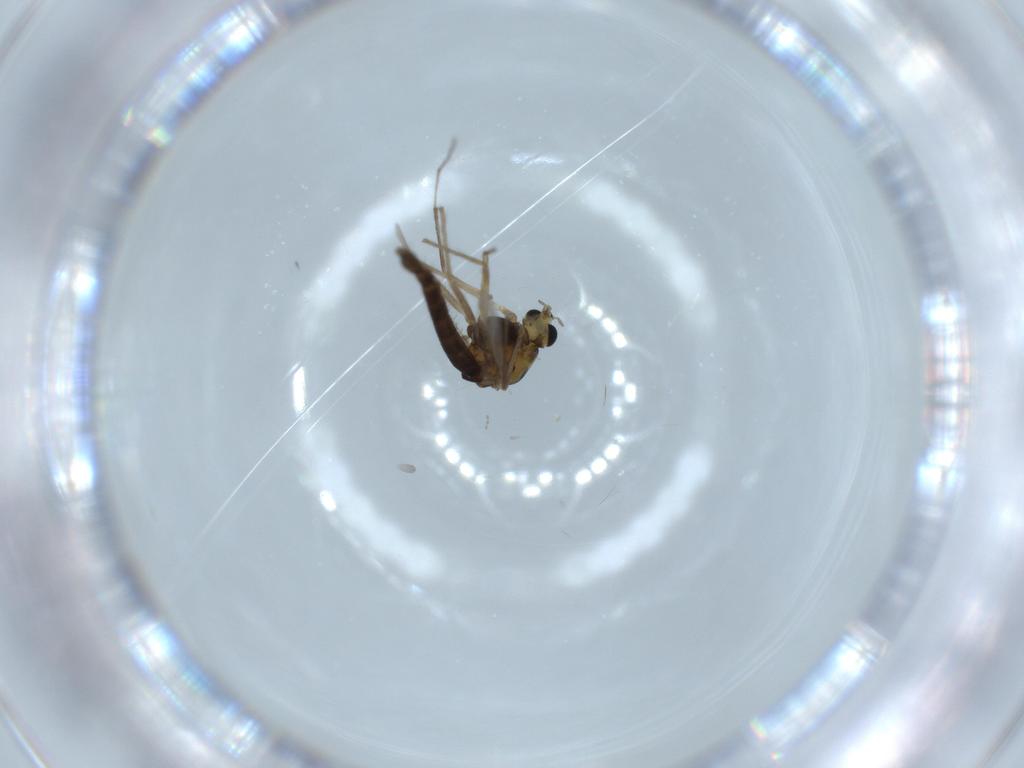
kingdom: Animalia
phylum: Arthropoda
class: Insecta
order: Diptera
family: Chironomidae
